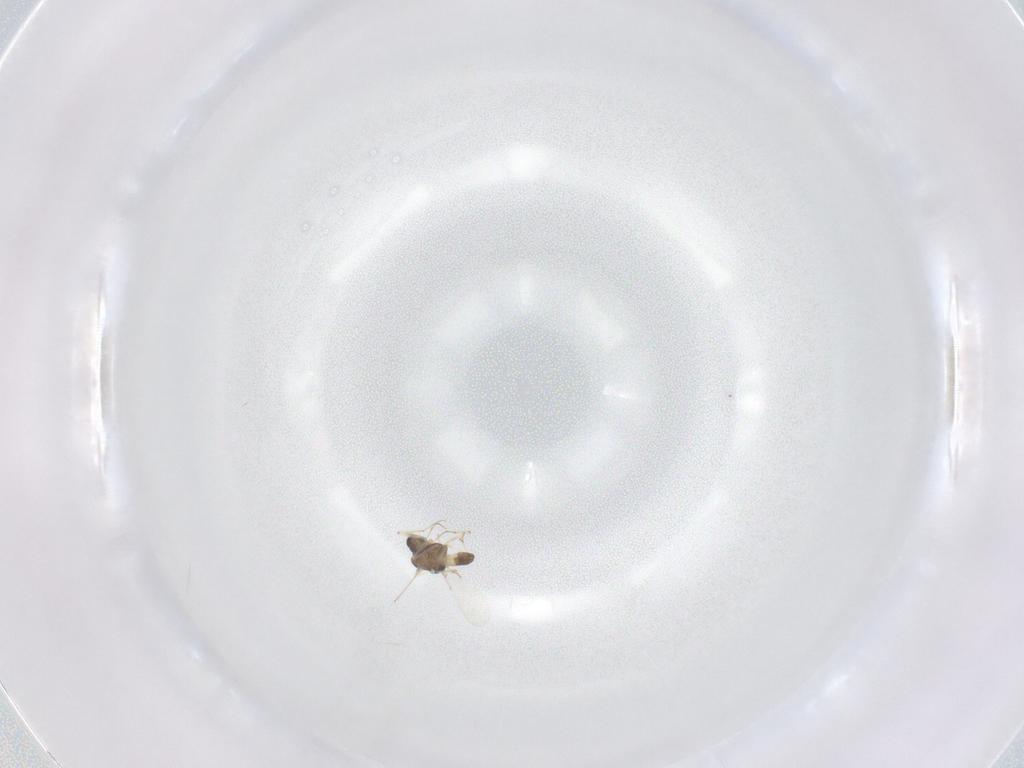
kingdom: Animalia
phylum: Arthropoda
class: Insecta
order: Diptera
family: Chironomidae
